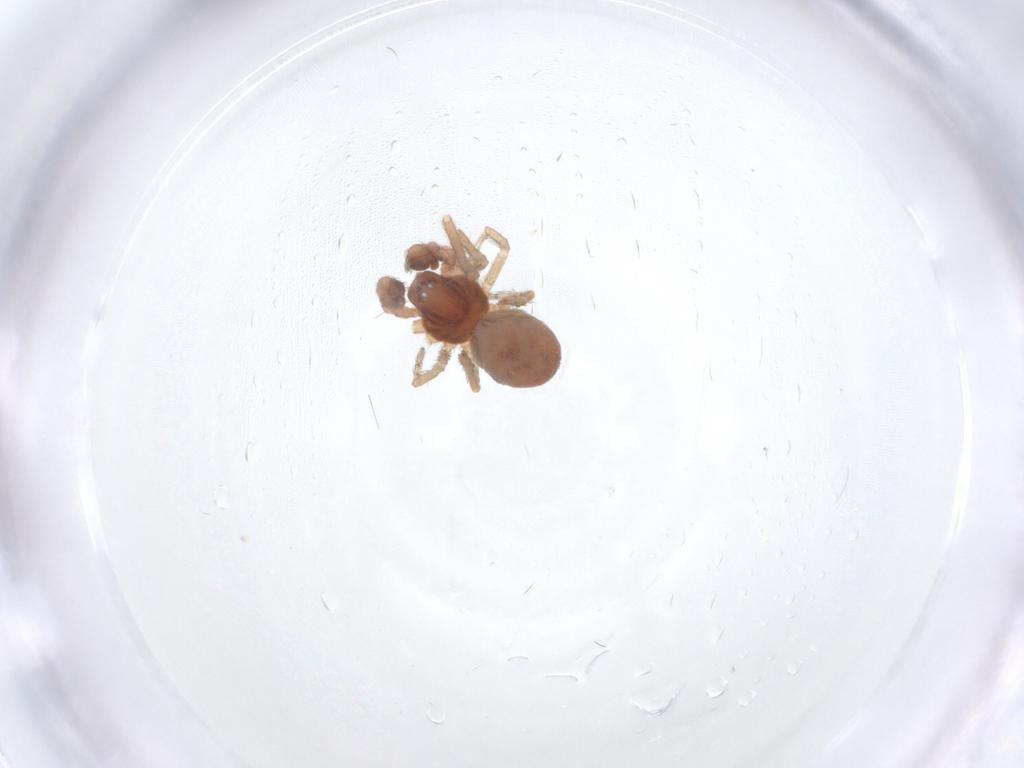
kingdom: Animalia
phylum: Arthropoda
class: Arachnida
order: Araneae
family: Dictynidae
